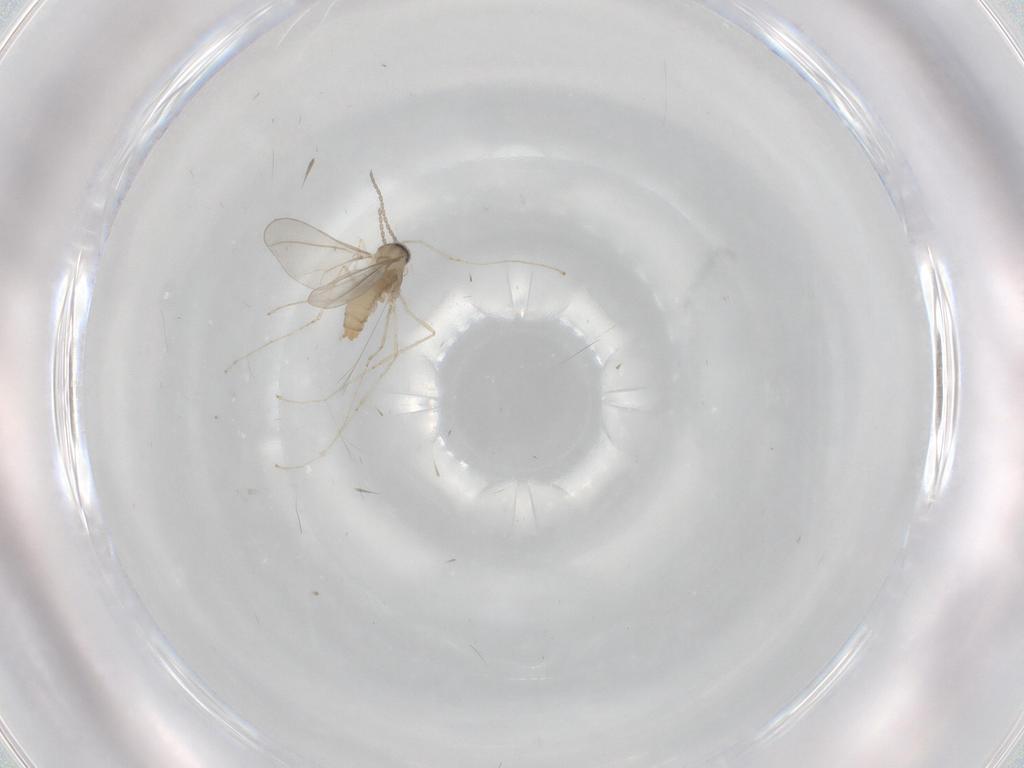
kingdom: Animalia
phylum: Arthropoda
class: Insecta
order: Diptera
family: Chironomidae
